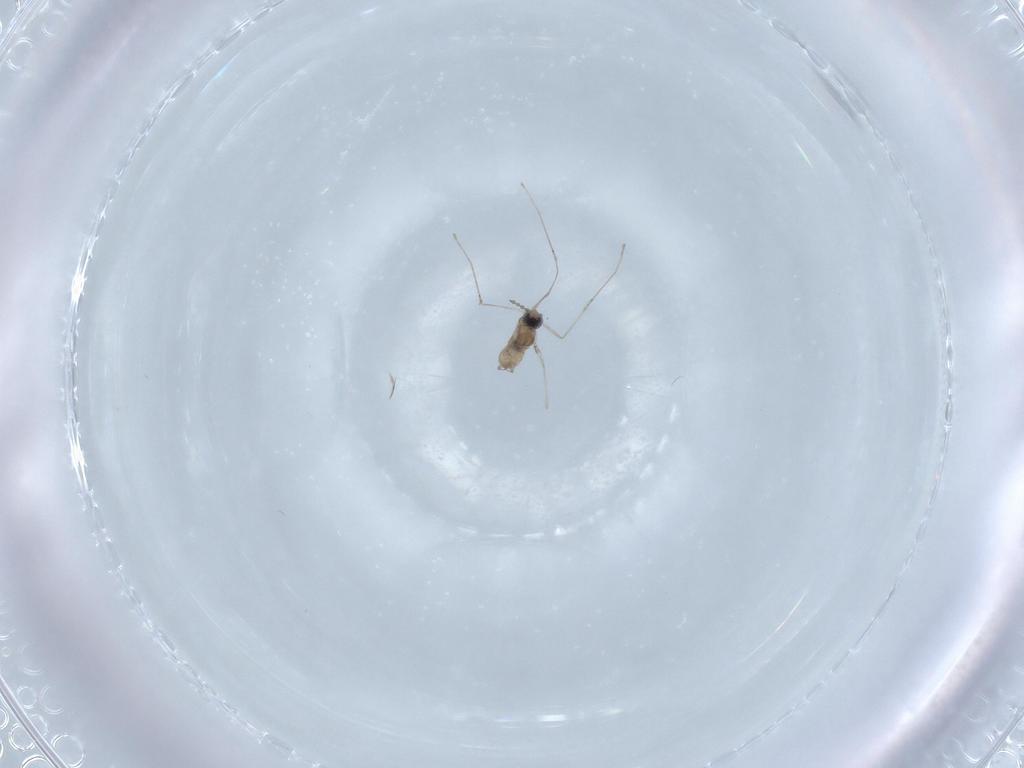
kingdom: Animalia
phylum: Arthropoda
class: Insecta
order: Diptera
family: Cecidomyiidae
